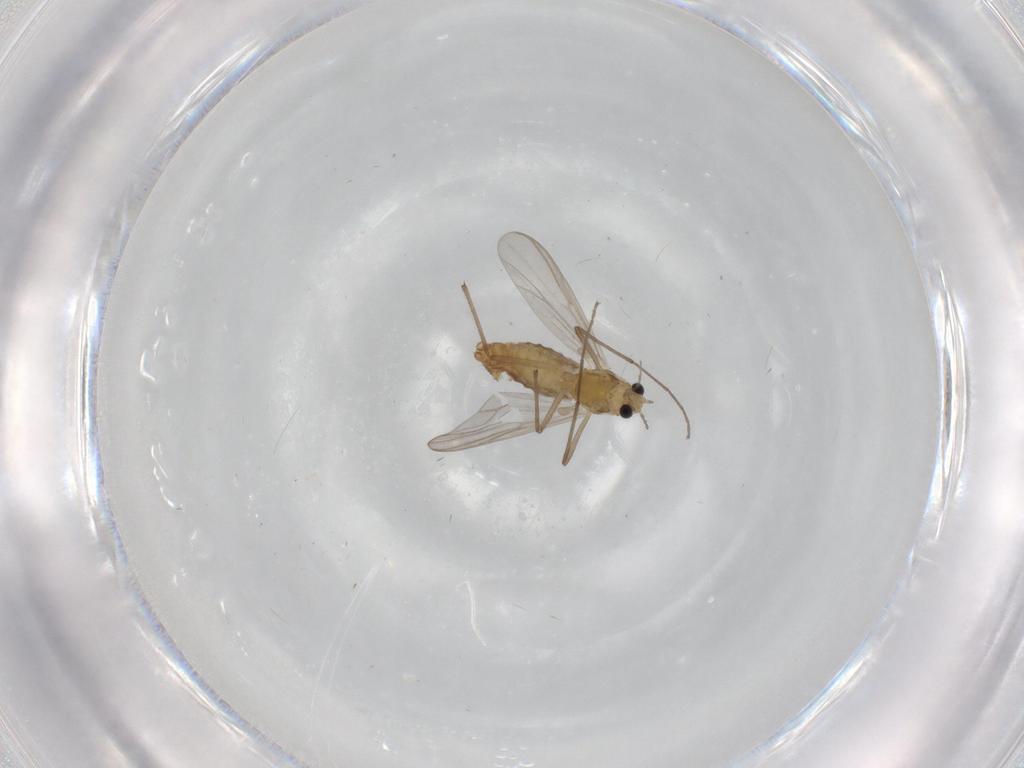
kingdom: Animalia
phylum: Arthropoda
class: Insecta
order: Diptera
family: Chironomidae
